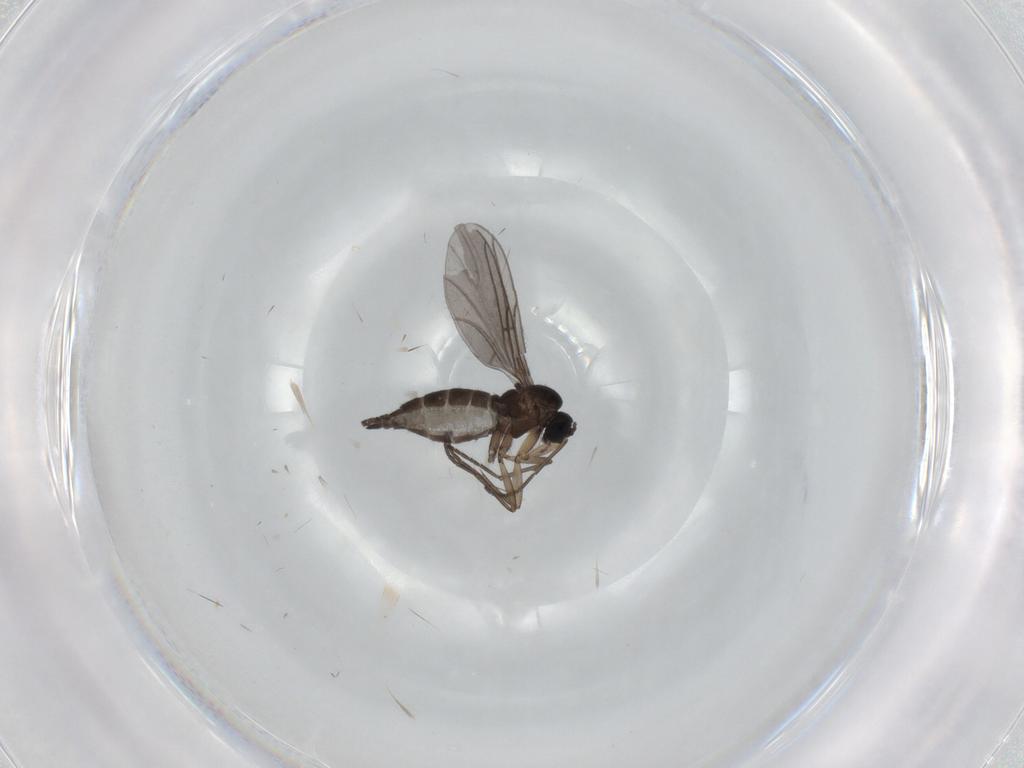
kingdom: Animalia
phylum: Arthropoda
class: Insecta
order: Diptera
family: Sciaridae
